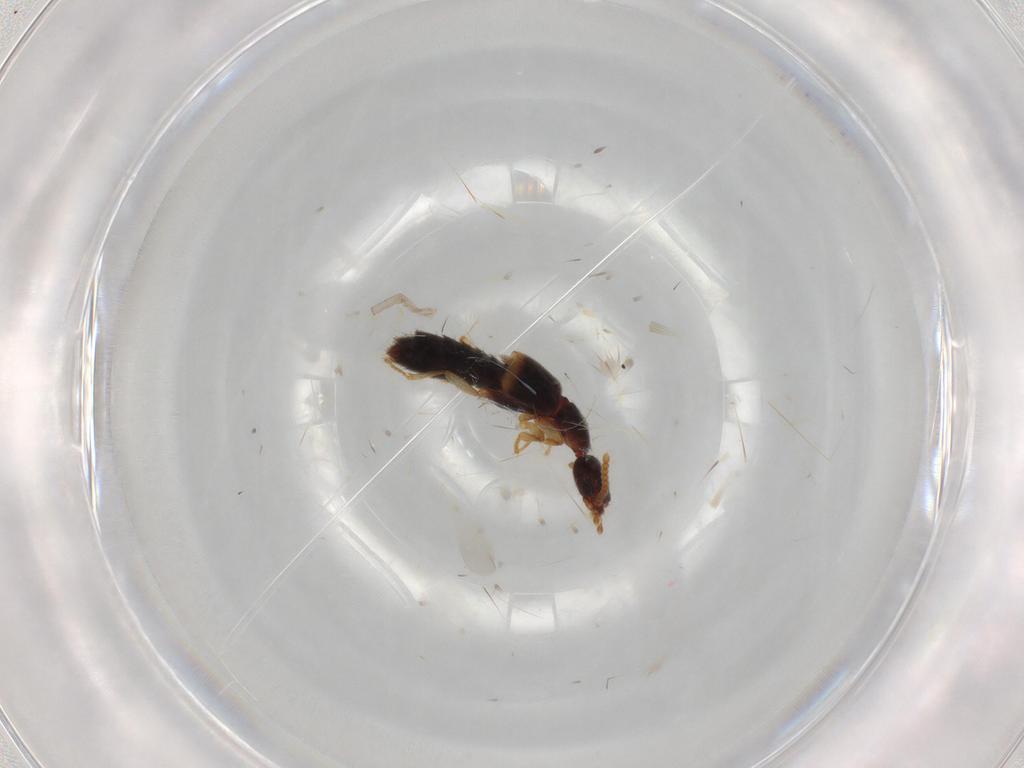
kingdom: Animalia
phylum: Arthropoda
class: Insecta
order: Coleoptera
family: Staphylinidae
